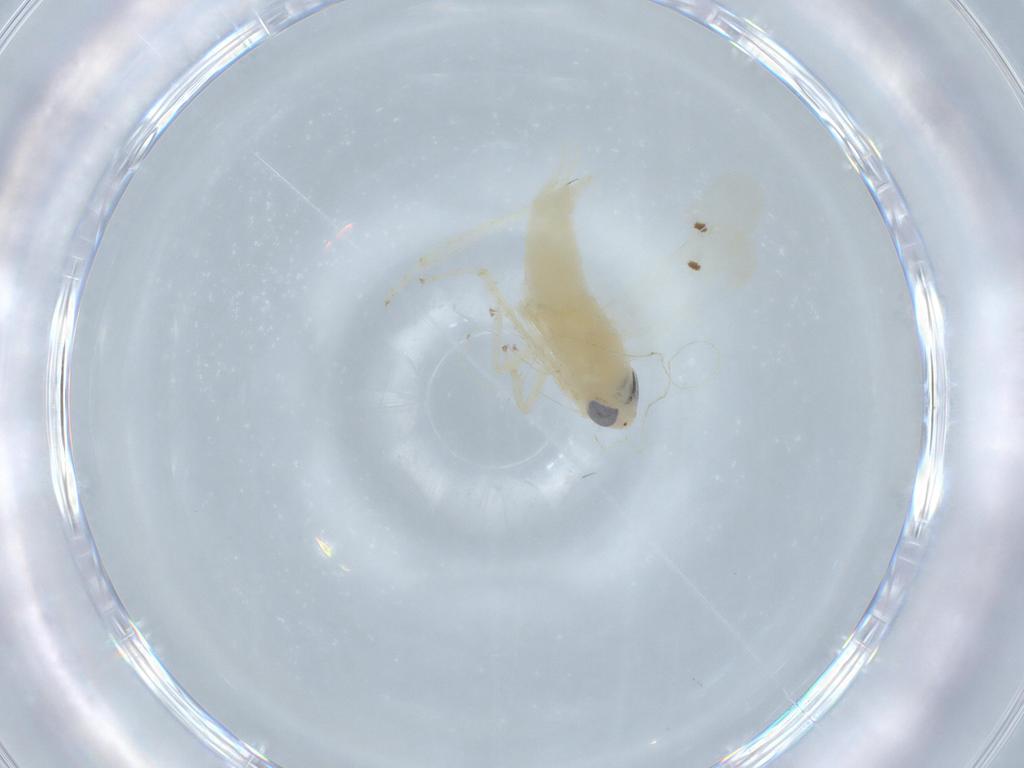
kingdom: Animalia
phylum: Arthropoda
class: Insecta
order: Hemiptera
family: Cicadellidae
